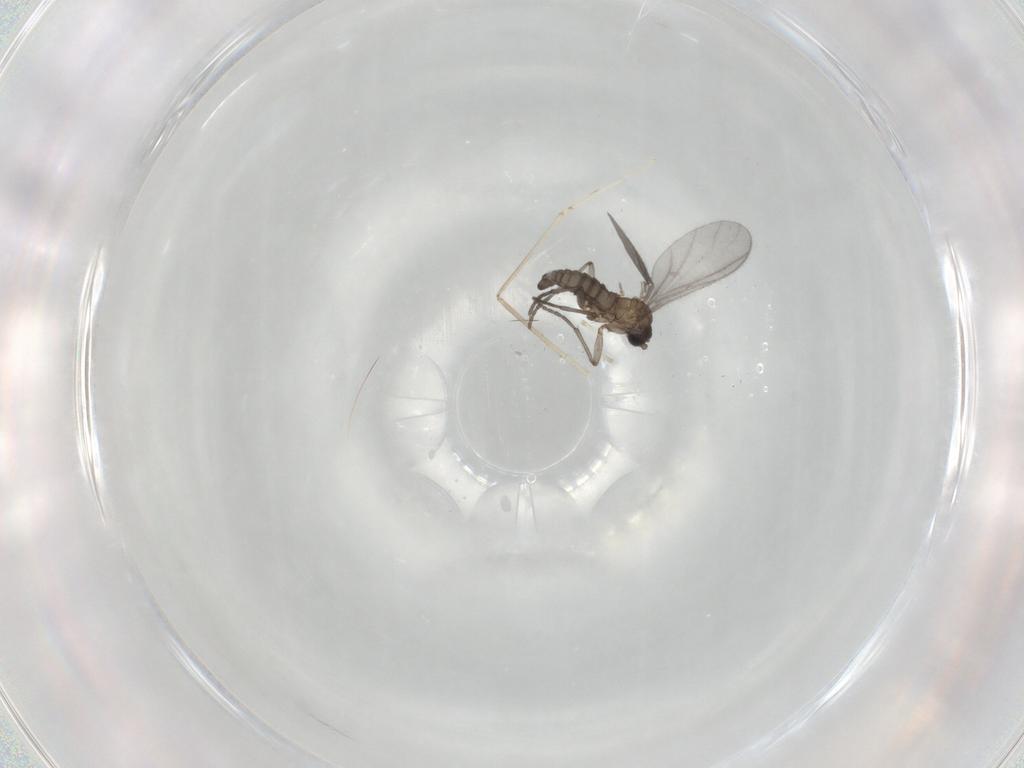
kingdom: Animalia
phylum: Arthropoda
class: Insecta
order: Diptera
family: Sciaridae
